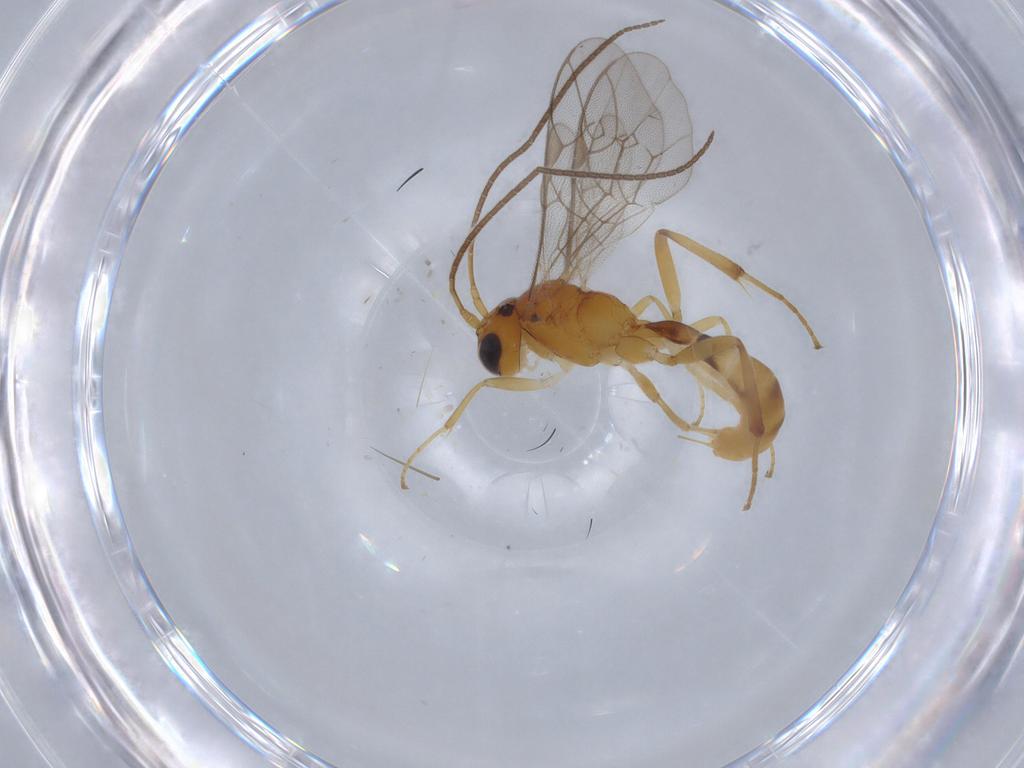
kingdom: Animalia
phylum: Arthropoda
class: Insecta
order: Hymenoptera
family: Ichneumonidae
